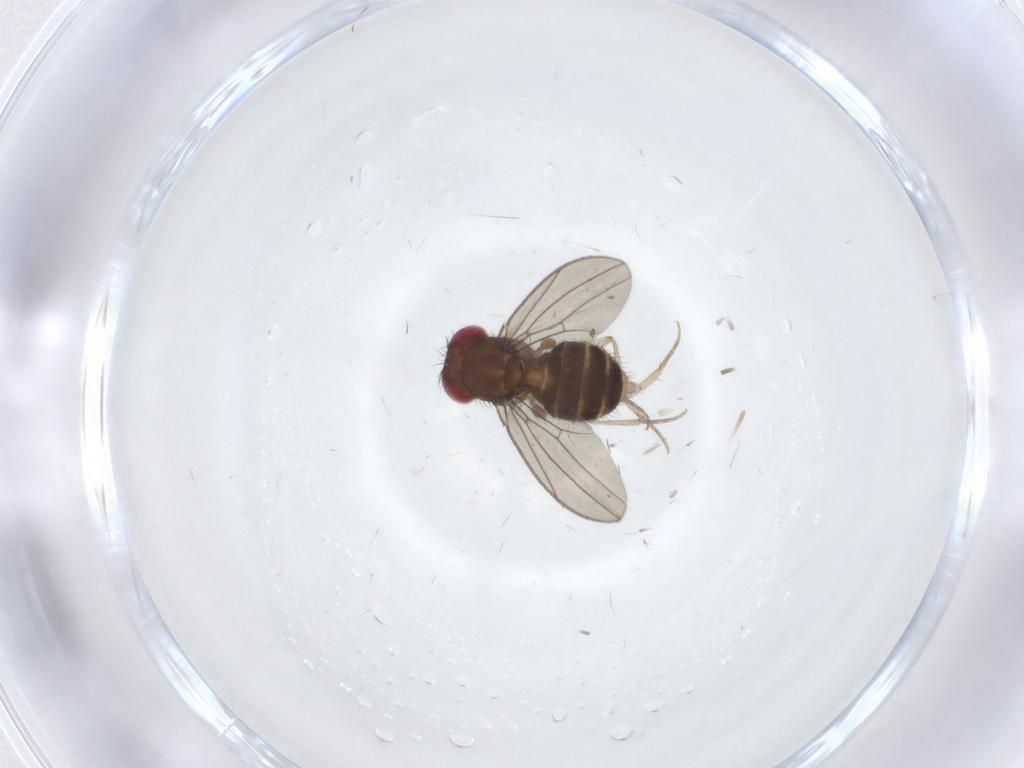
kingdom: Animalia
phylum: Arthropoda
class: Insecta
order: Diptera
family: Drosophilidae
